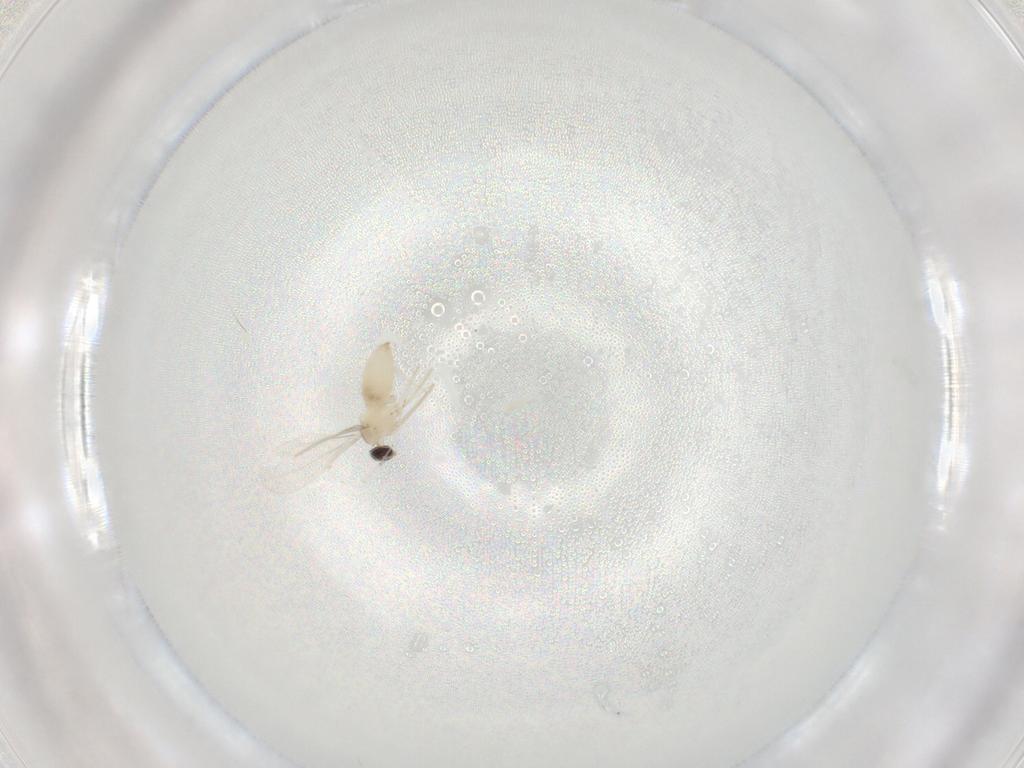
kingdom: Animalia
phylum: Arthropoda
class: Insecta
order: Diptera
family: Cecidomyiidae
